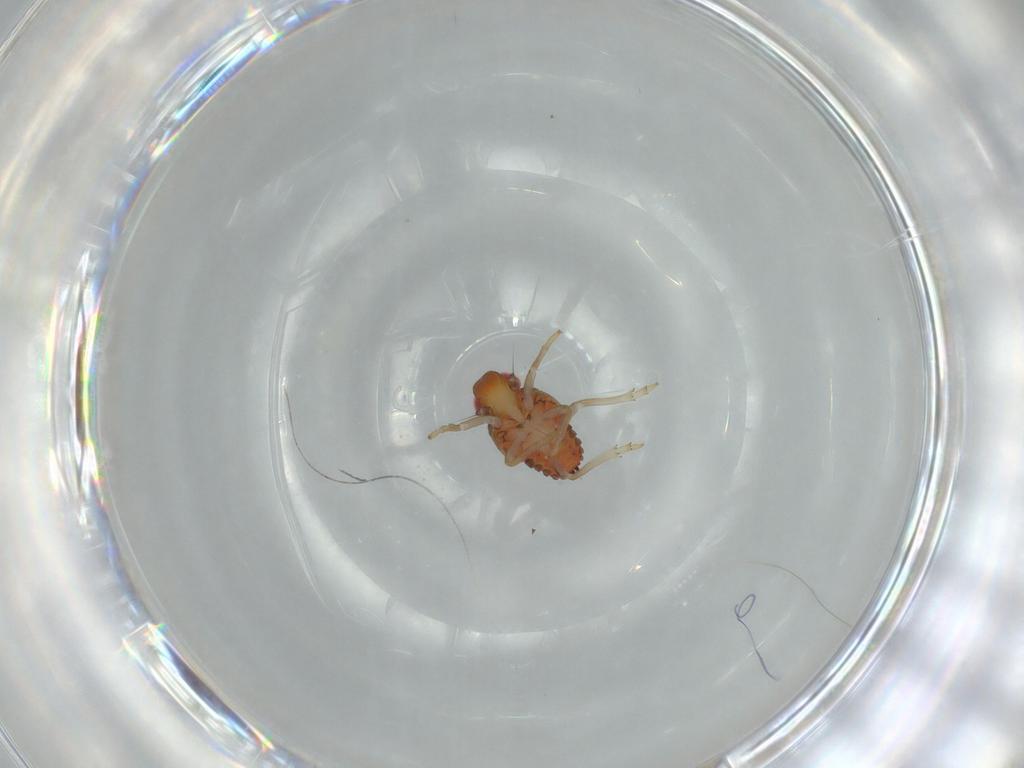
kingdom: Animalia
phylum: Arthropoda
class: Insecta
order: Hemiptera
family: Issidae
